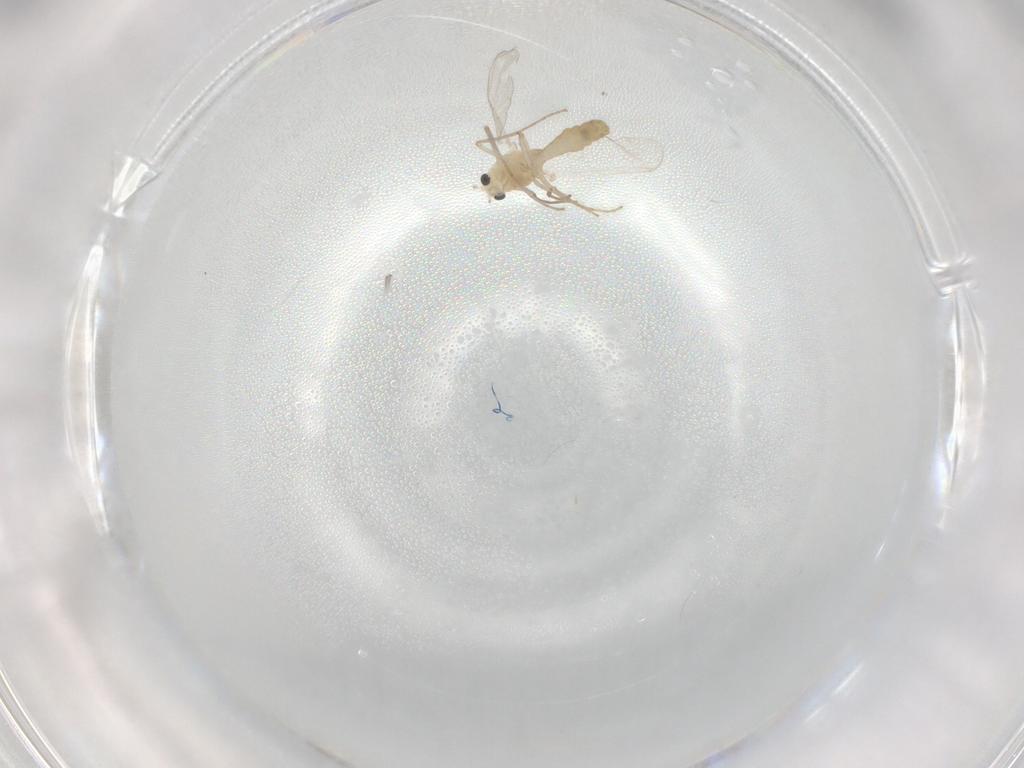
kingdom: Animalia
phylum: Arthropoda
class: Insecta
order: Diptera
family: Chironomidae
